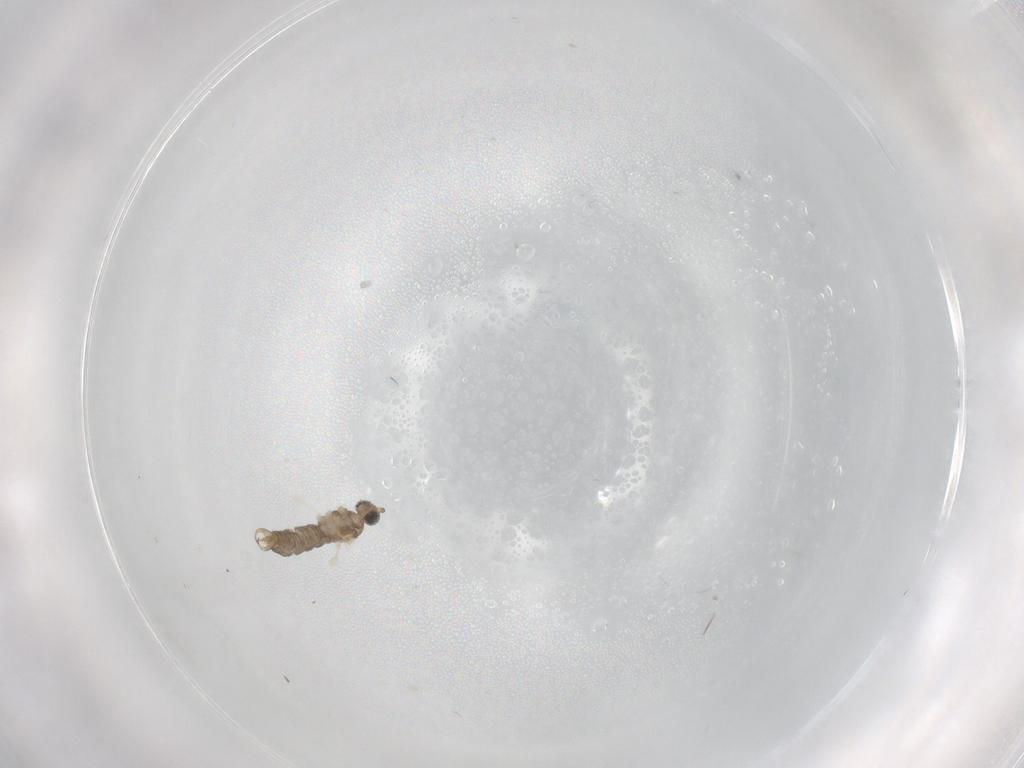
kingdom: Animalia
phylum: Arthropoda
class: Insecta
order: Diptera
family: Cecidomyiidae
